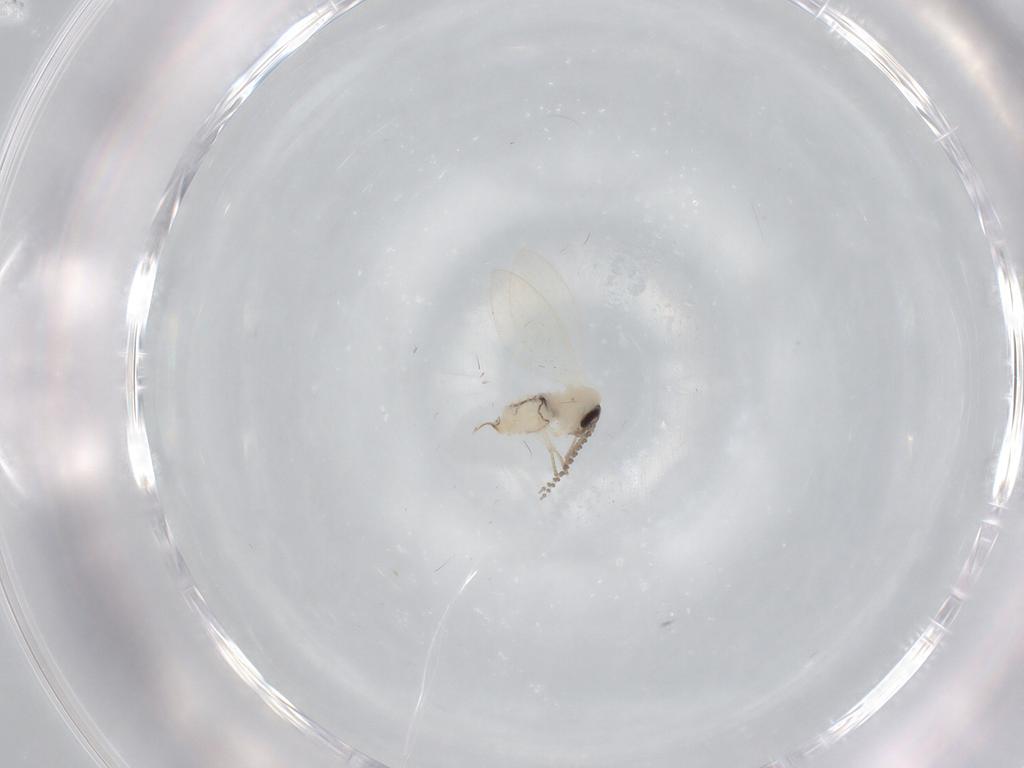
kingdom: Animalia
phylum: Arthropoda
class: Insecta
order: Diptera
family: Psychodidae
